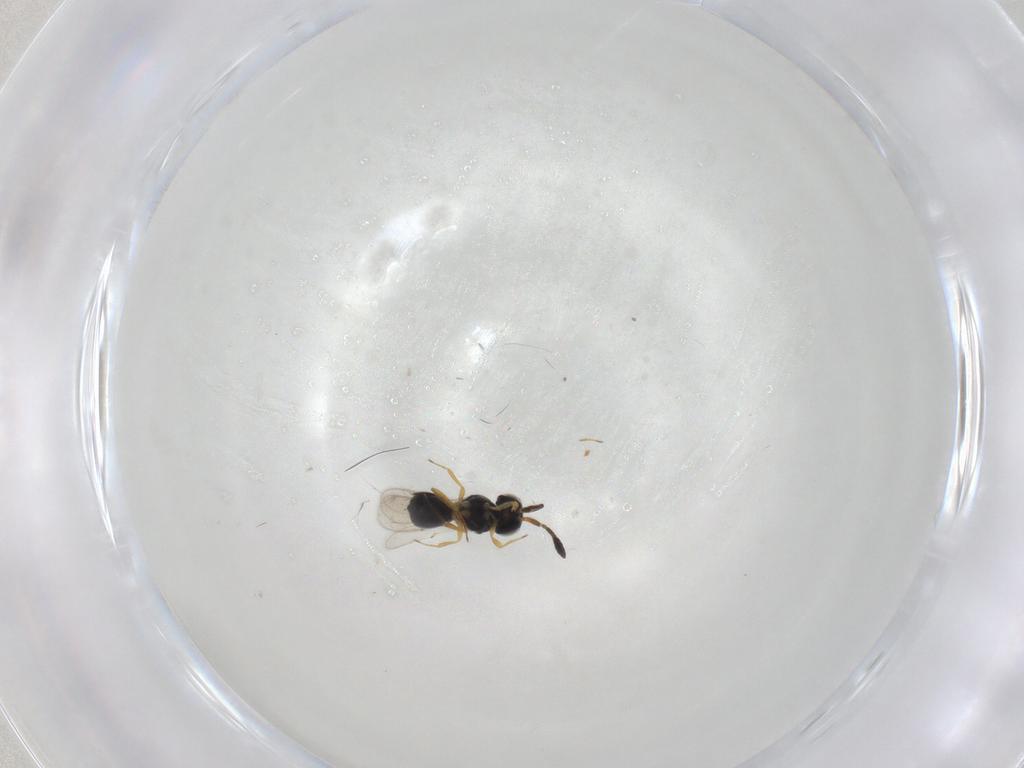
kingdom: Animalia
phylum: Arthropoda
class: Insecta
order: Hymenoptera
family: Scelionidae
